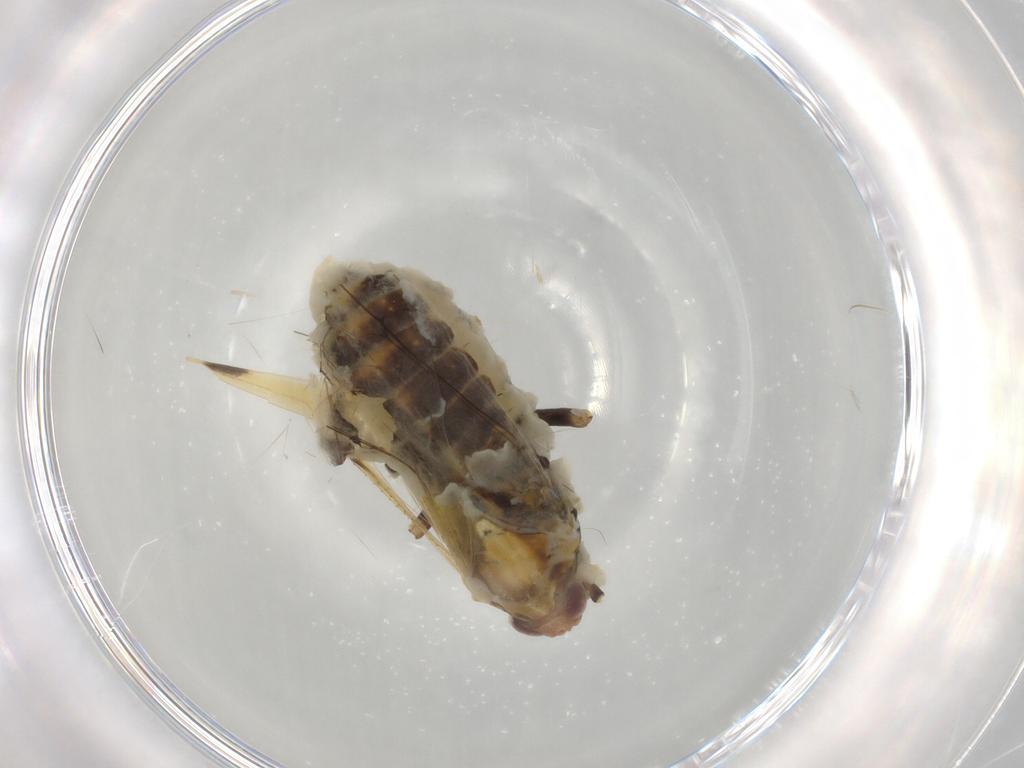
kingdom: Animalia
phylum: Arthropoda
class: Insecta
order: Hemiptera
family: Delphacidae
